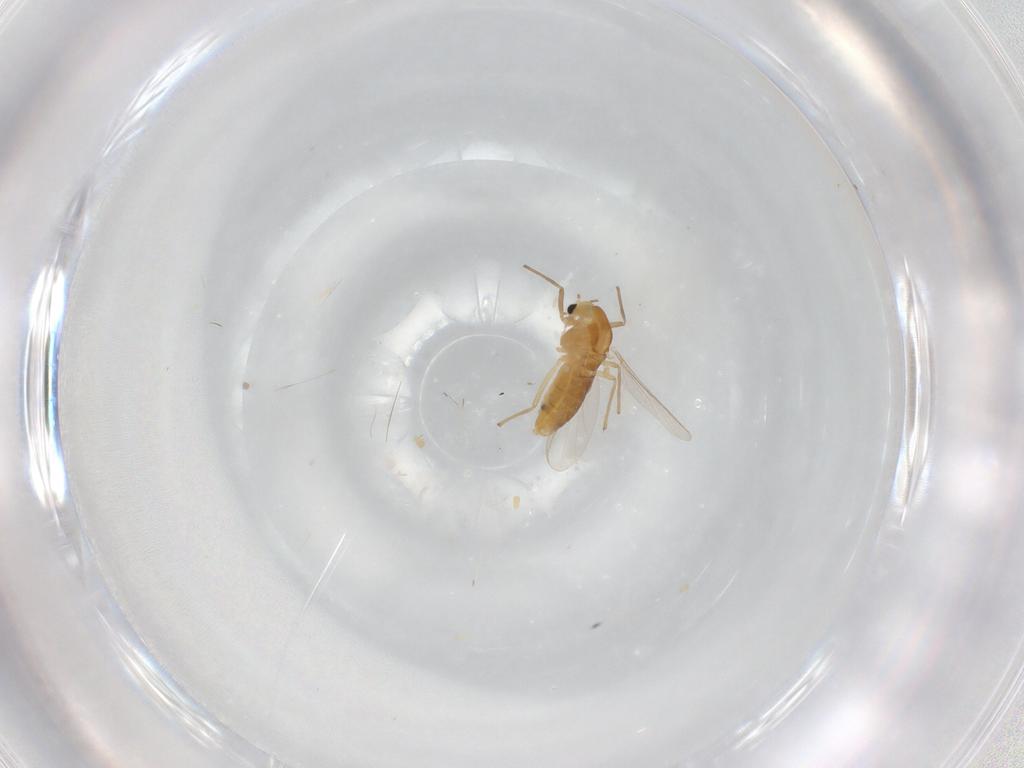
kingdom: Animalia
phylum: Arthropoda
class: Insecta
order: Diptera
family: Chironomidae
